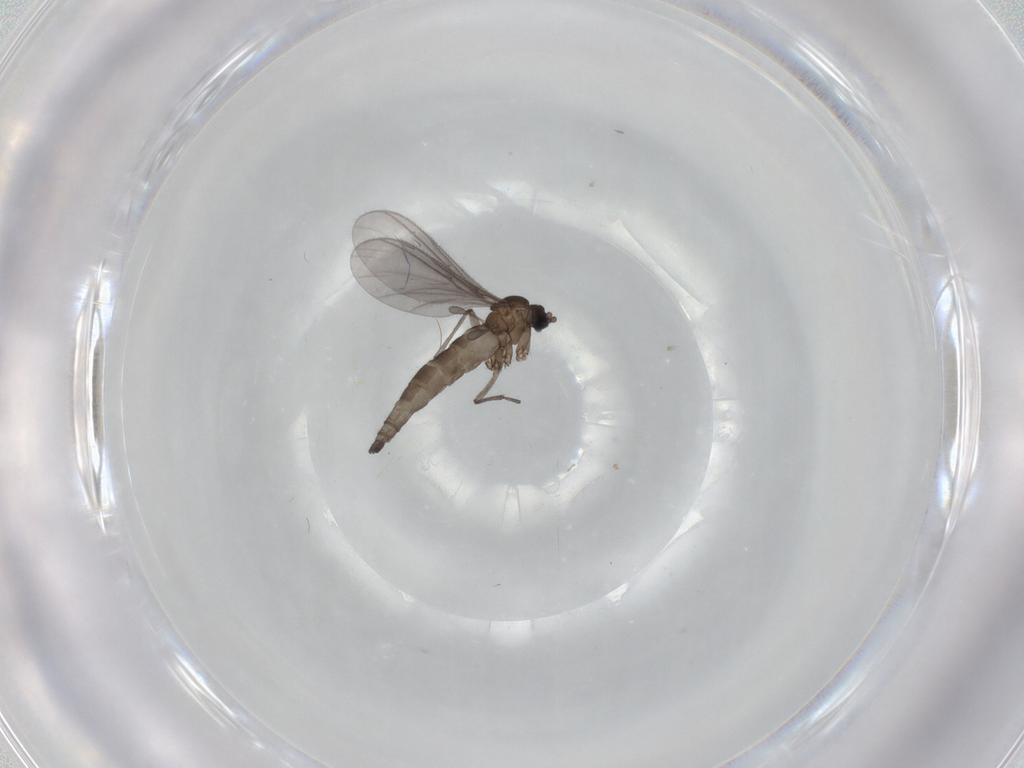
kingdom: Animalia
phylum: Arthropoda
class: Insecta
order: Diptera
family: Sciaridae
